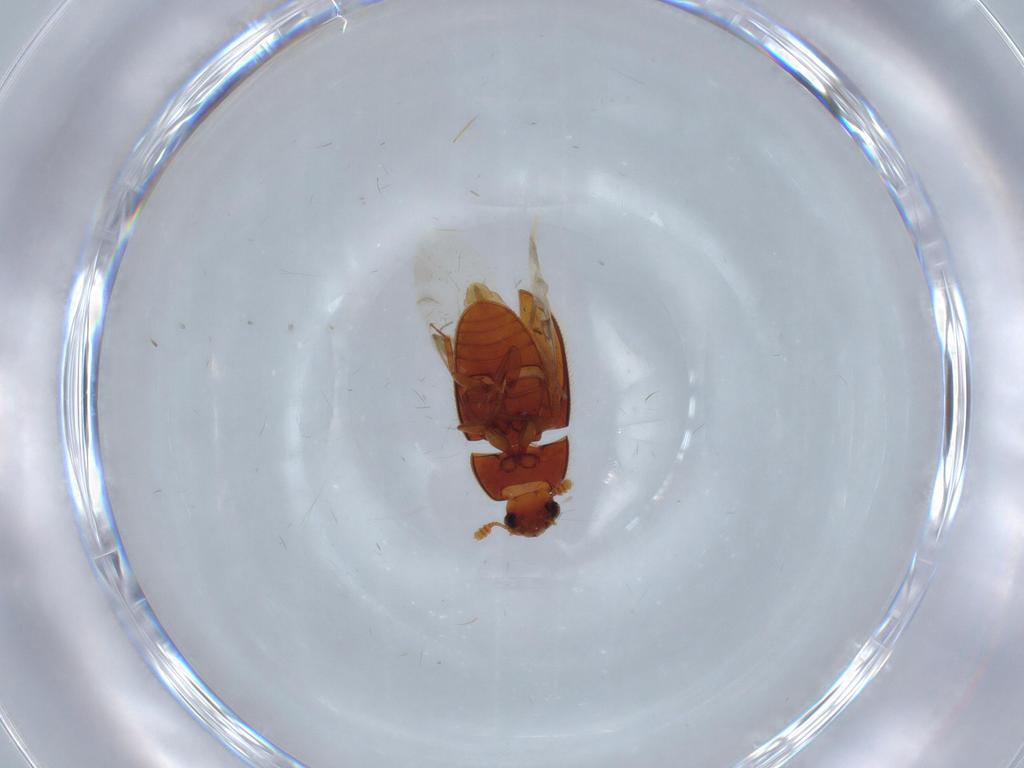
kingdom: Animalia
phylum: Arthropoda
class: Insecta
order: Coleoptera
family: Biphyllidae
